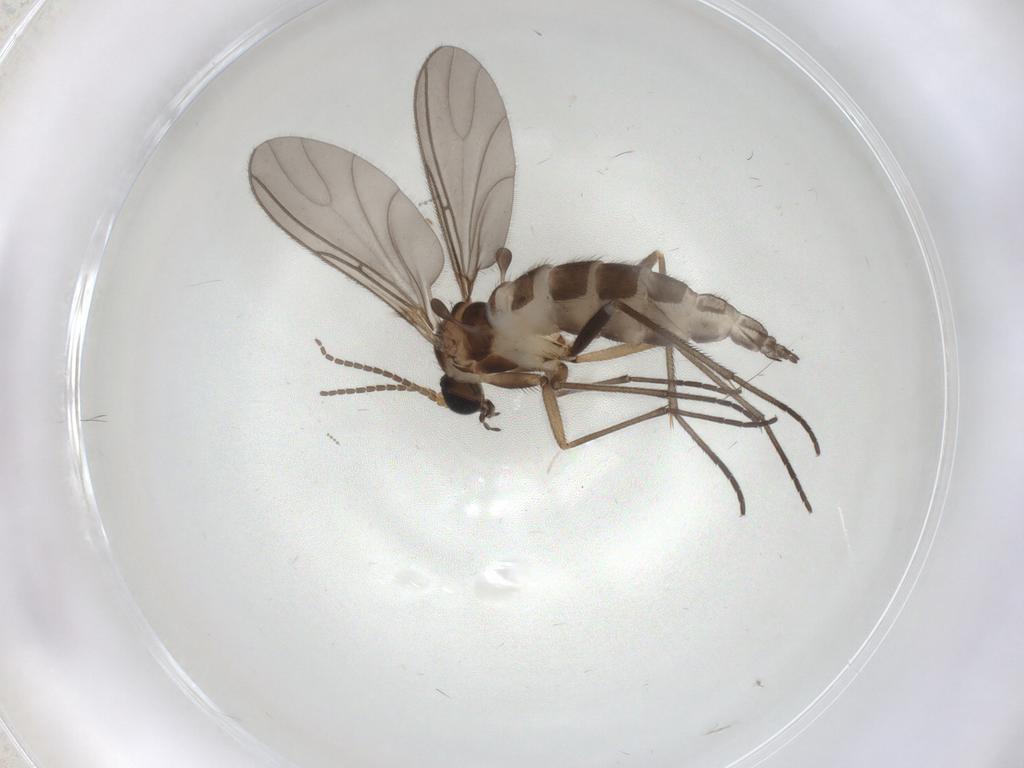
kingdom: Animalia
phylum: Arthropoda
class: Insecta
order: Diptera
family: Sciaridae
